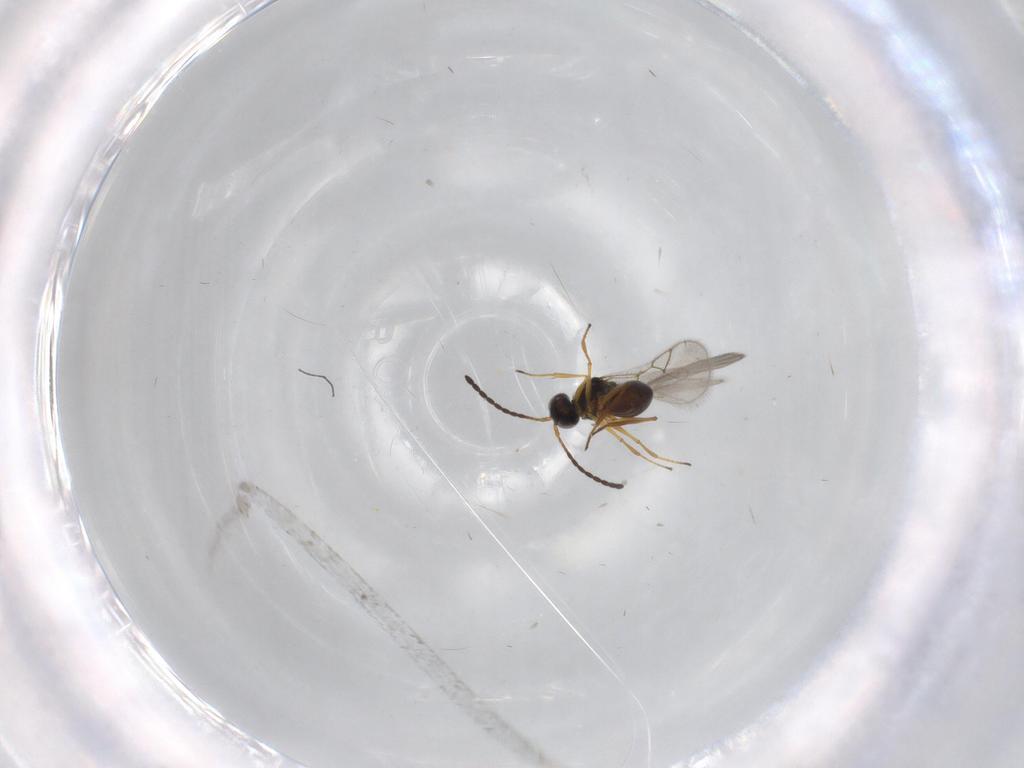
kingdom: Animalia
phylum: Arthropoda
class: Insecta
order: Hymenoptera
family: Figitidae
